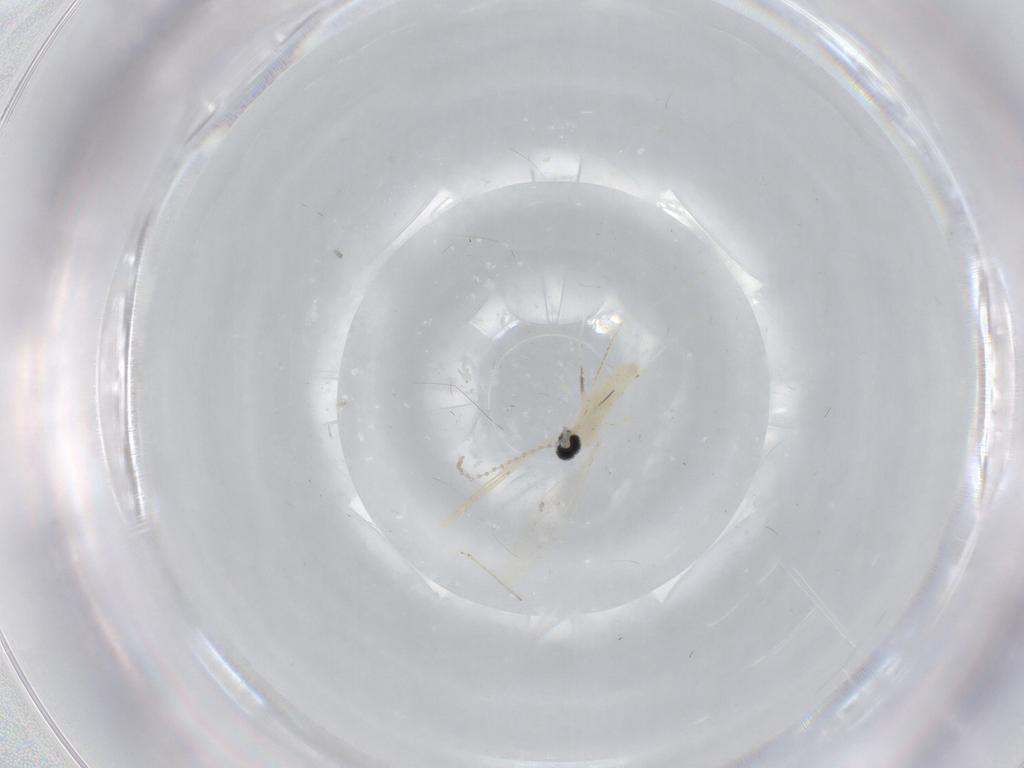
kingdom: Animalia
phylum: Arthropoda
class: Insecta
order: Diptera
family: Cecidomyiidae
